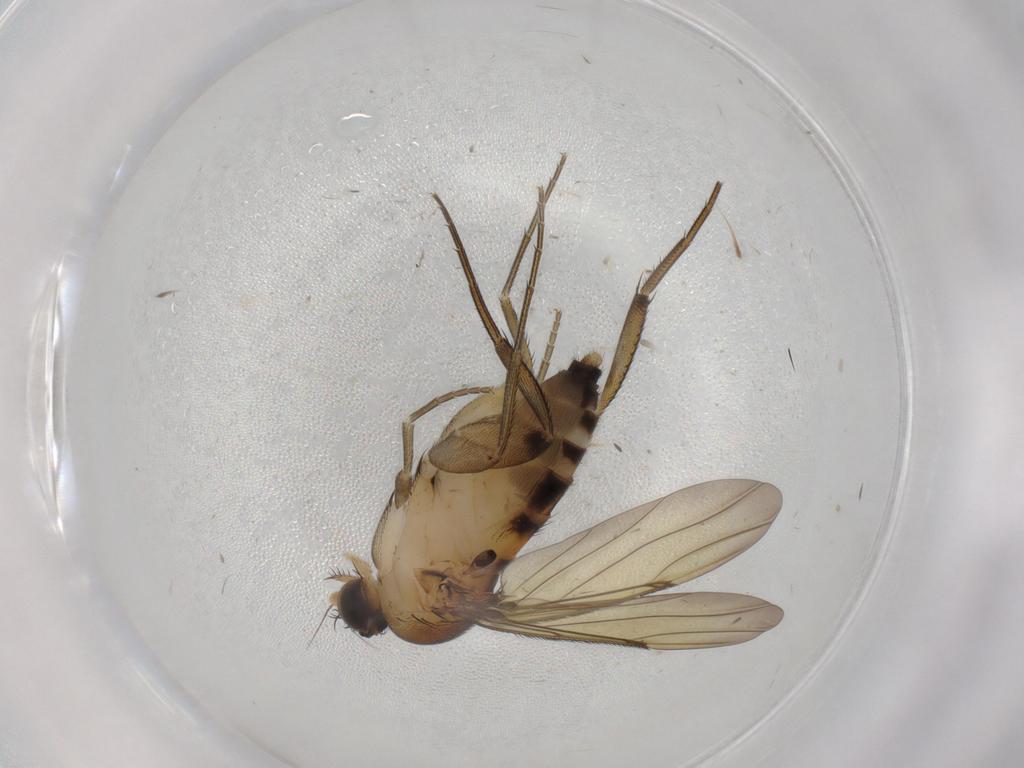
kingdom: Animalia
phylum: Arthropoda
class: Insecta
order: Diptera
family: Phoridae
